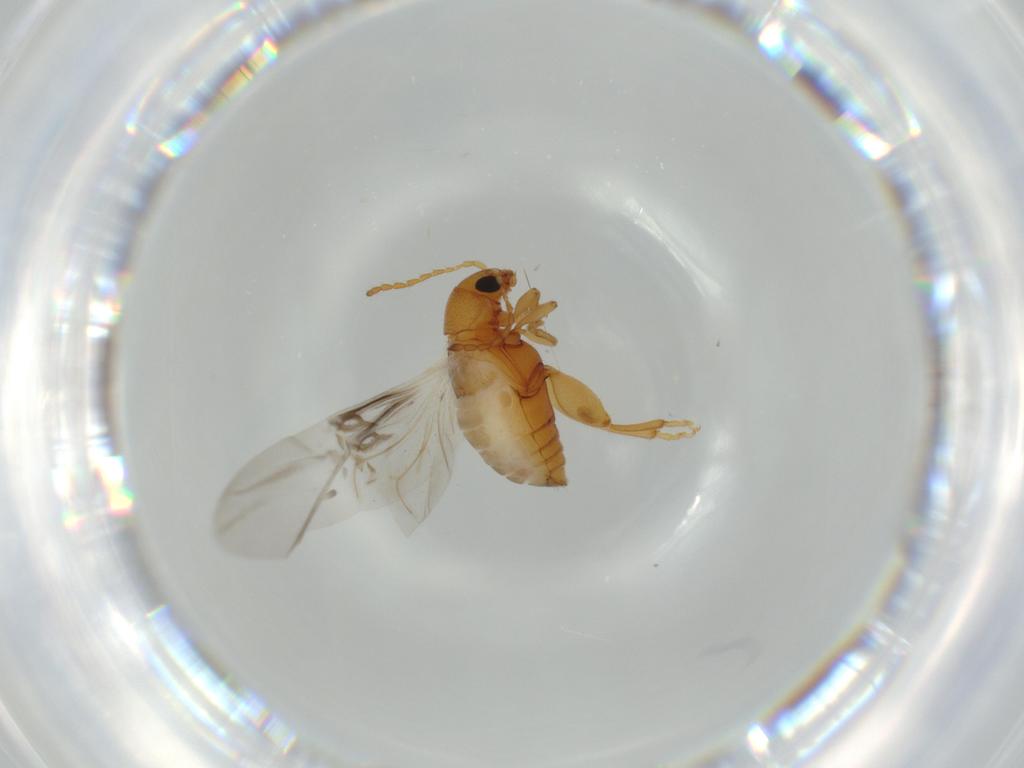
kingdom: Animalia
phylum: Arthropoda
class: Insecta
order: Coleoptera
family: Chrysomelidae
